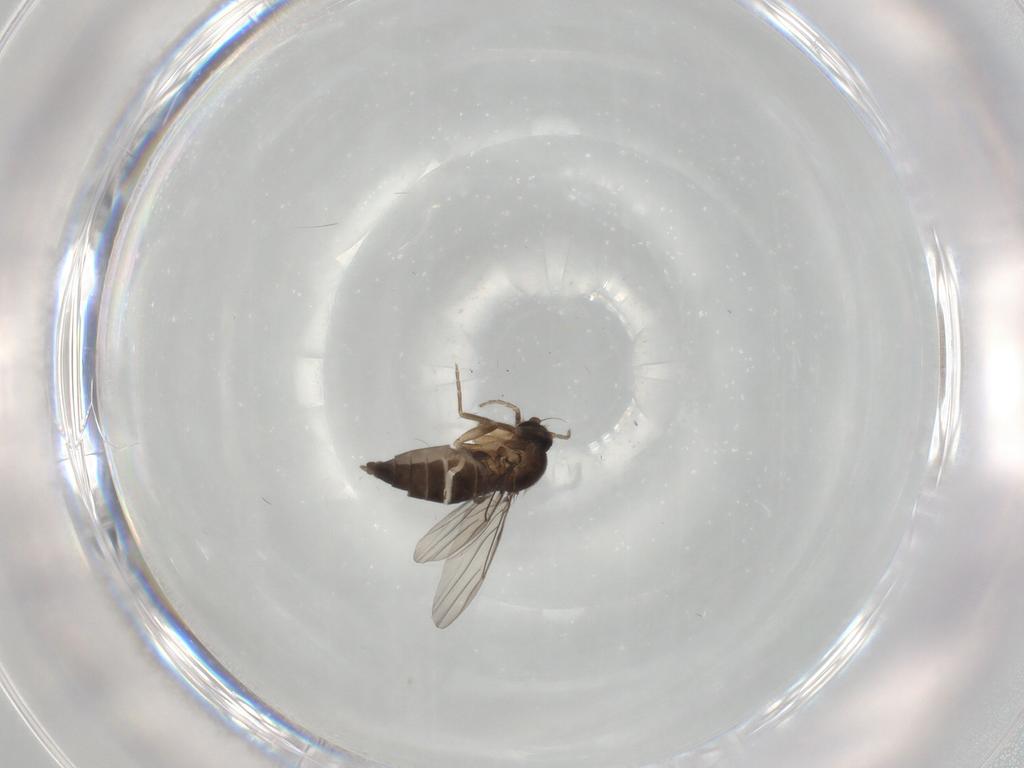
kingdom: Animalia
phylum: Arthropoda
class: Insecta
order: Diptera
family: Phoridae
